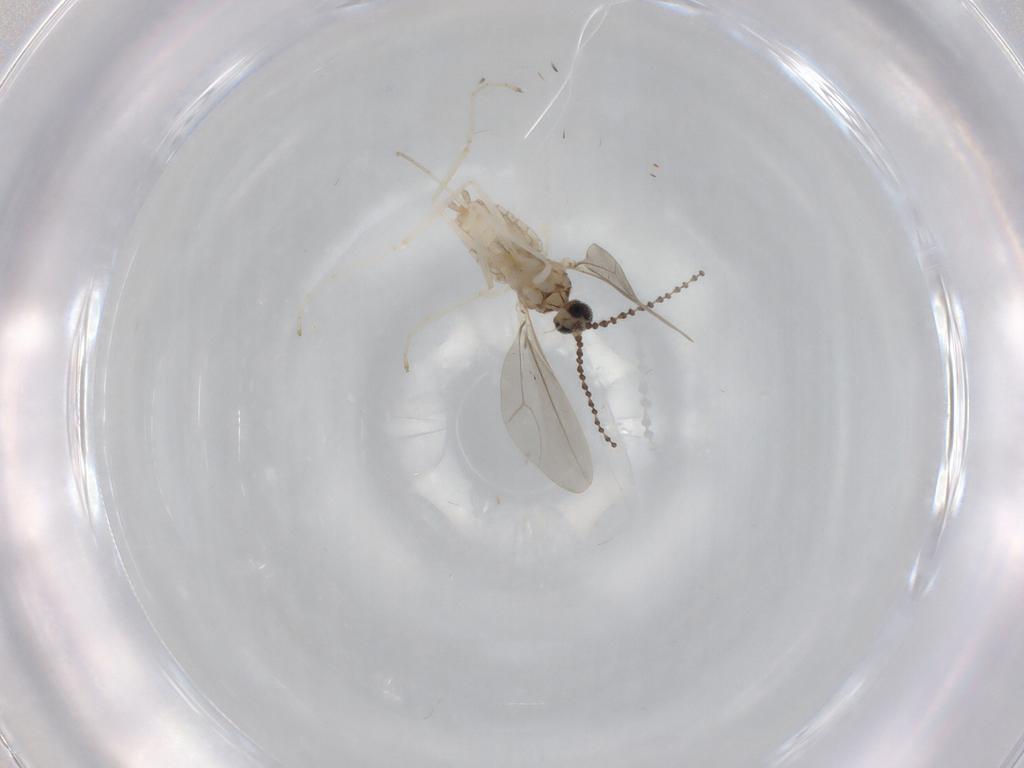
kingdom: Animalia
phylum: Arthropoda
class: Insecta
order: Diptera
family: Psychodidae
